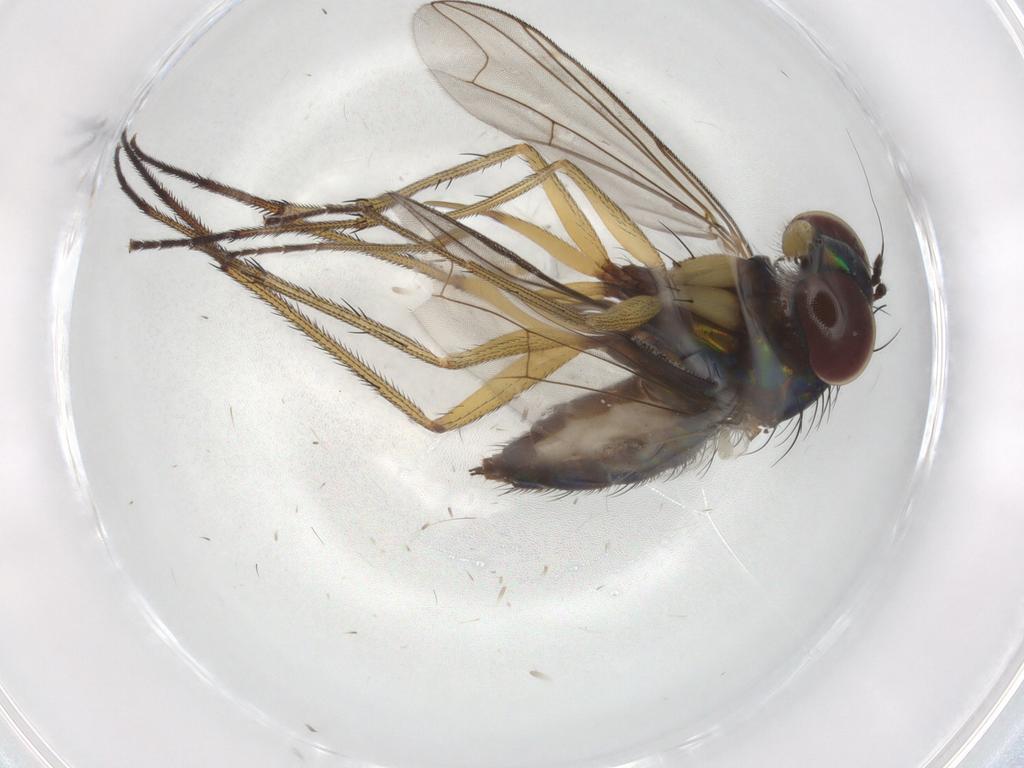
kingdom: Animalia
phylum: Arthropoda
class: Insecta
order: Diptera
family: Dolichopodidae
